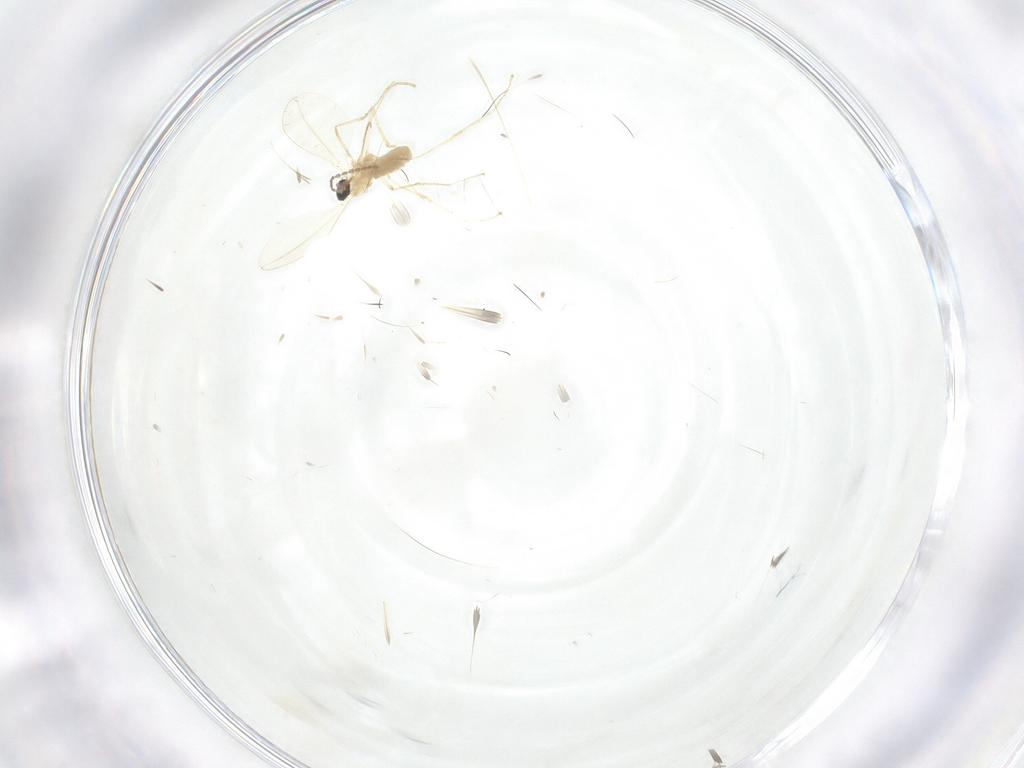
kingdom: Animalia
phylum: Arthropoda
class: Insecta
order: Diptera
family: Cecidomyiidae
